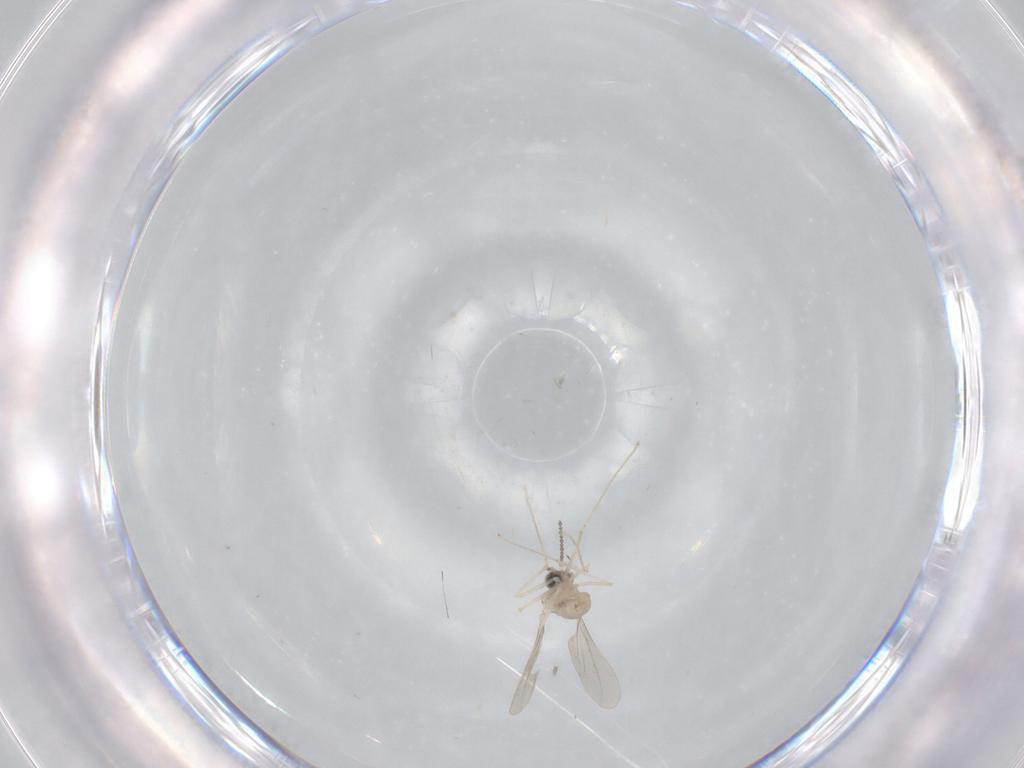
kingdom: Animalia
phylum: Arthropoda
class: Insecta
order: Diptera
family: Cecidomyiidae
